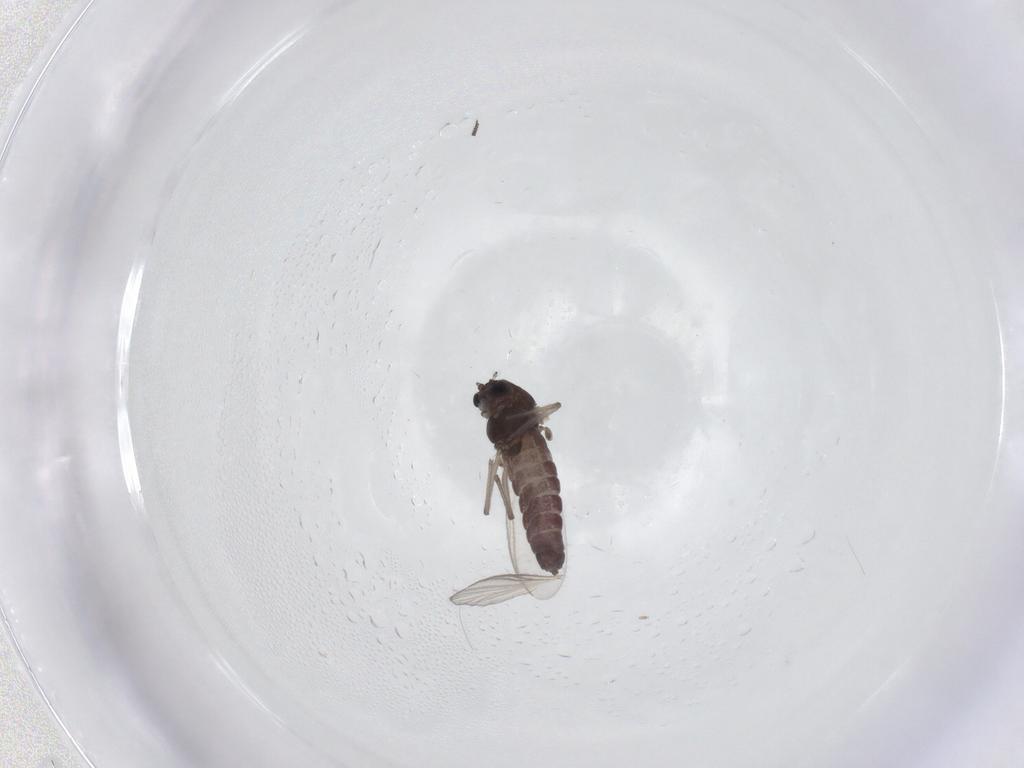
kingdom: Animalia
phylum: Arthropoda
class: Insecta
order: Diptera
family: Chironomidae
